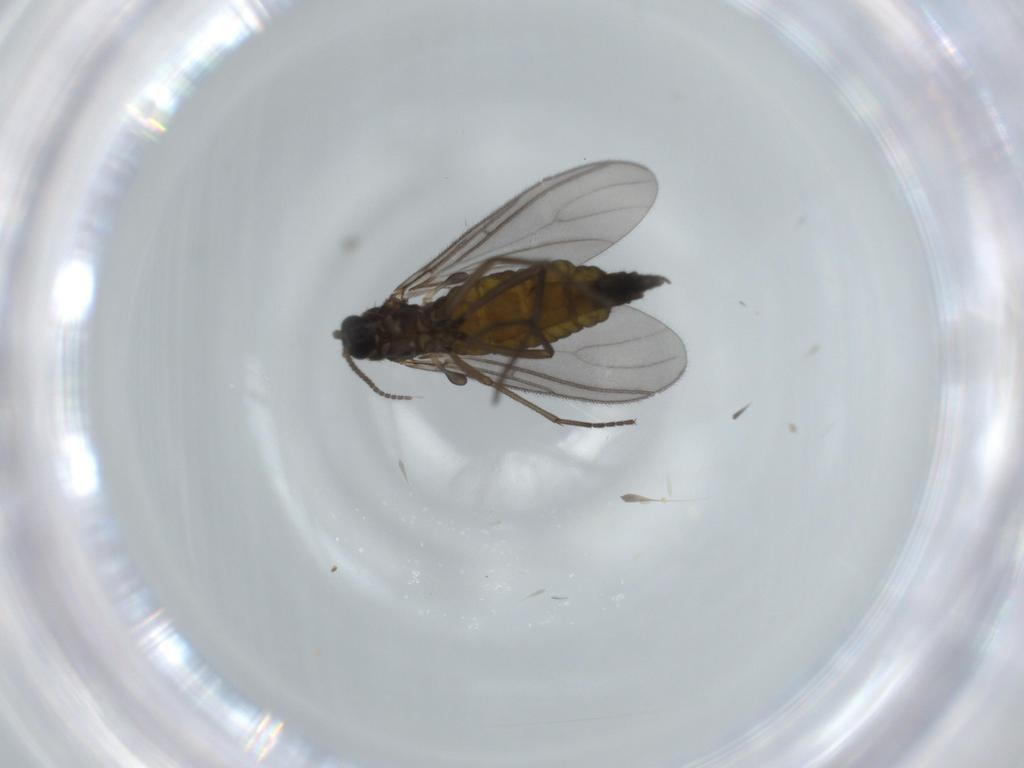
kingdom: Animalia
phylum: Arthropoda
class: Insecta
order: Diptera
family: Sciaridae
